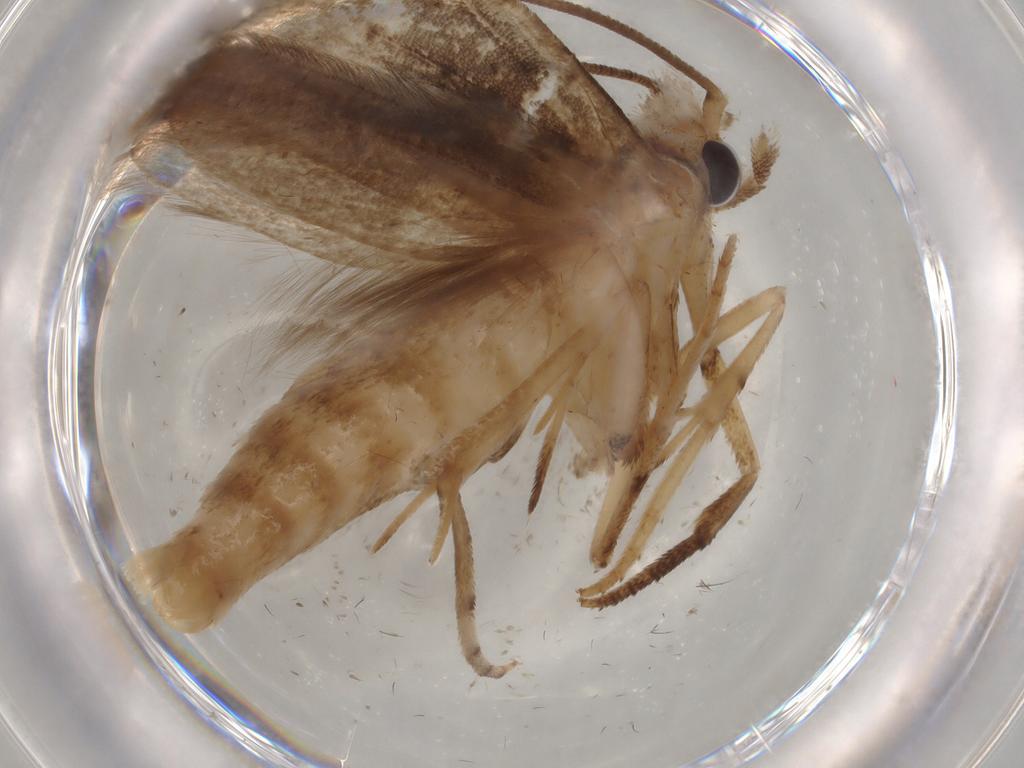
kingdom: Animalia
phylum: Arthropoda
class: Insecta
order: Lepidoptera
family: Yponomeutidae
